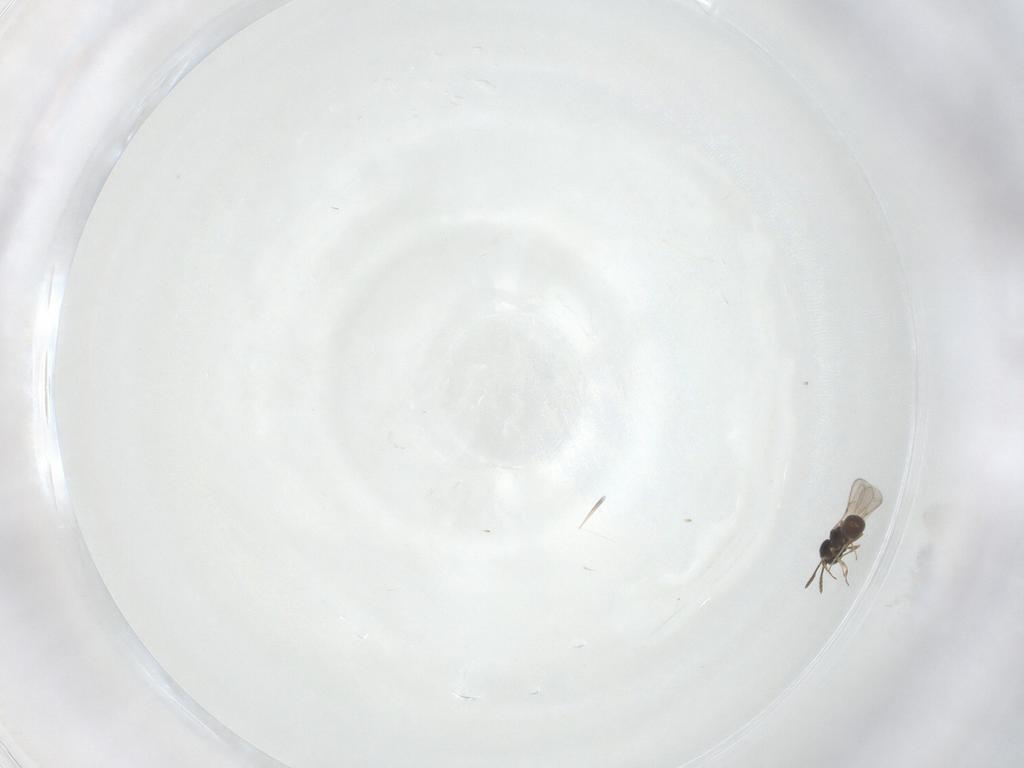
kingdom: Animalia
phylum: Arthropoda
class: Insecta
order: Hymenoptera
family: Scelionidae
